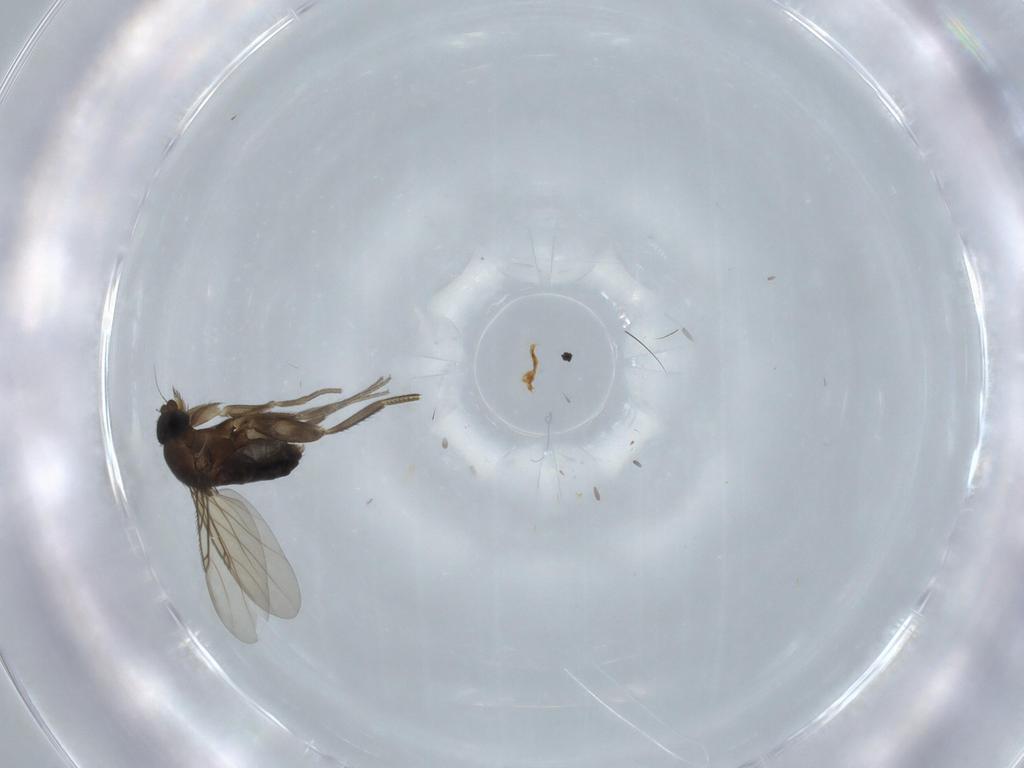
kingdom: Animalia
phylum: Arthropoda
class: Insecta
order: Diptera
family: Phoridae
